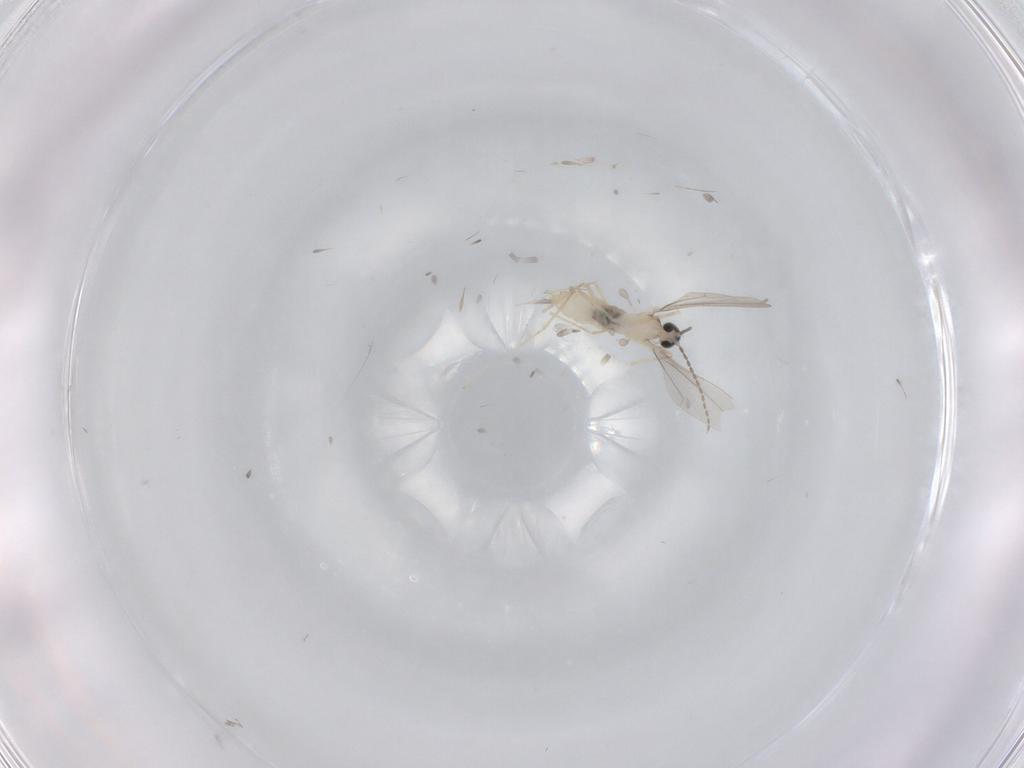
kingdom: Animalia
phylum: Arthropoda
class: Insecta
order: Diptera
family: Cecidomyiidae
